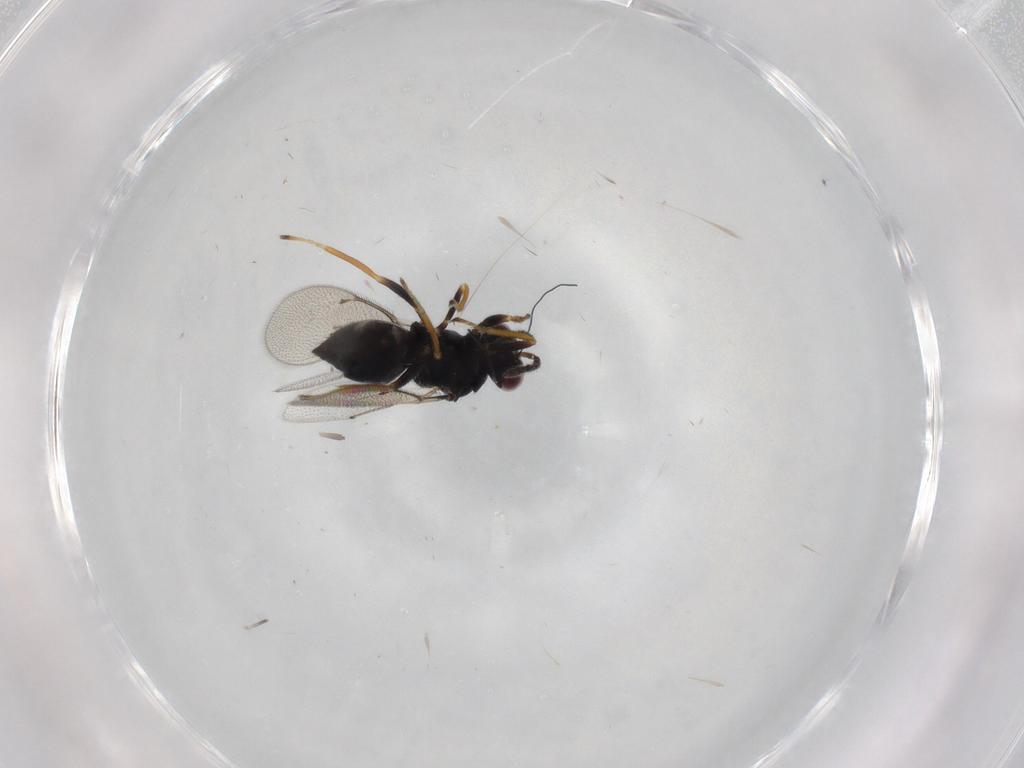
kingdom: Animalia
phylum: Arthropoda
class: Insecta
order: Hymenoptera
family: Eulophidae
